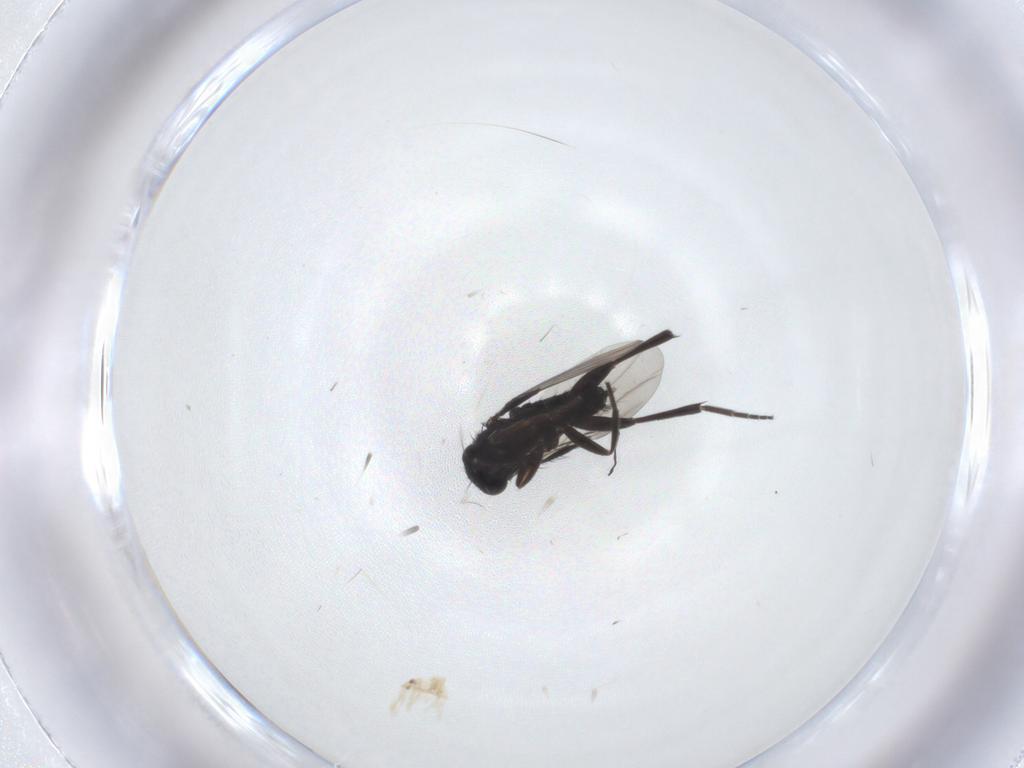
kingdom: Animalia
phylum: Arthropoda
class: Insecta
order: Diptera
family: Phoridae
